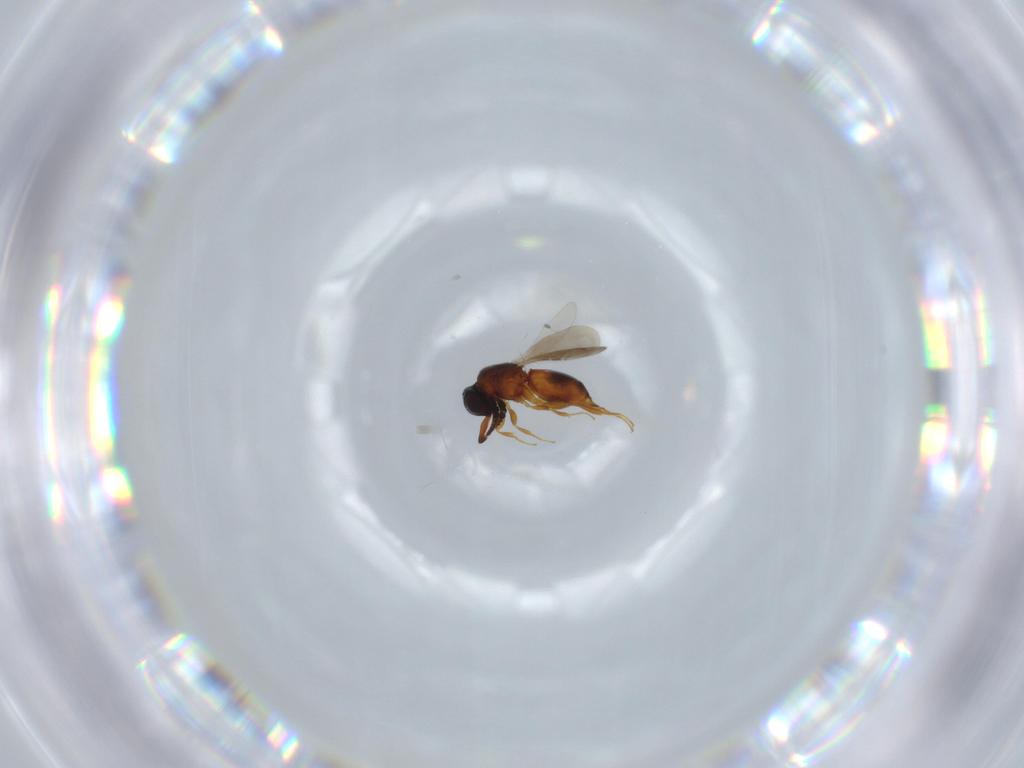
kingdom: Animalia
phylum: Arthropoda
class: Insecta
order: Hymenoptera
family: Ceraphronidae
